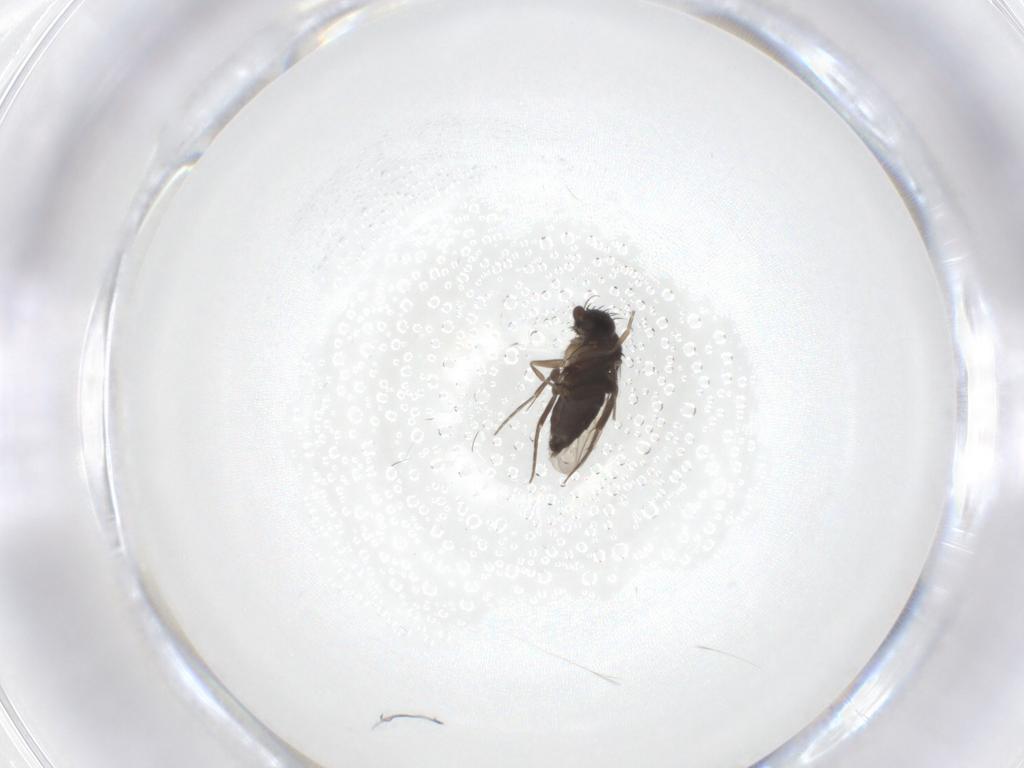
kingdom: Animalia
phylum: Arthropoda
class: Insecta
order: Diptera
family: Phoridae
